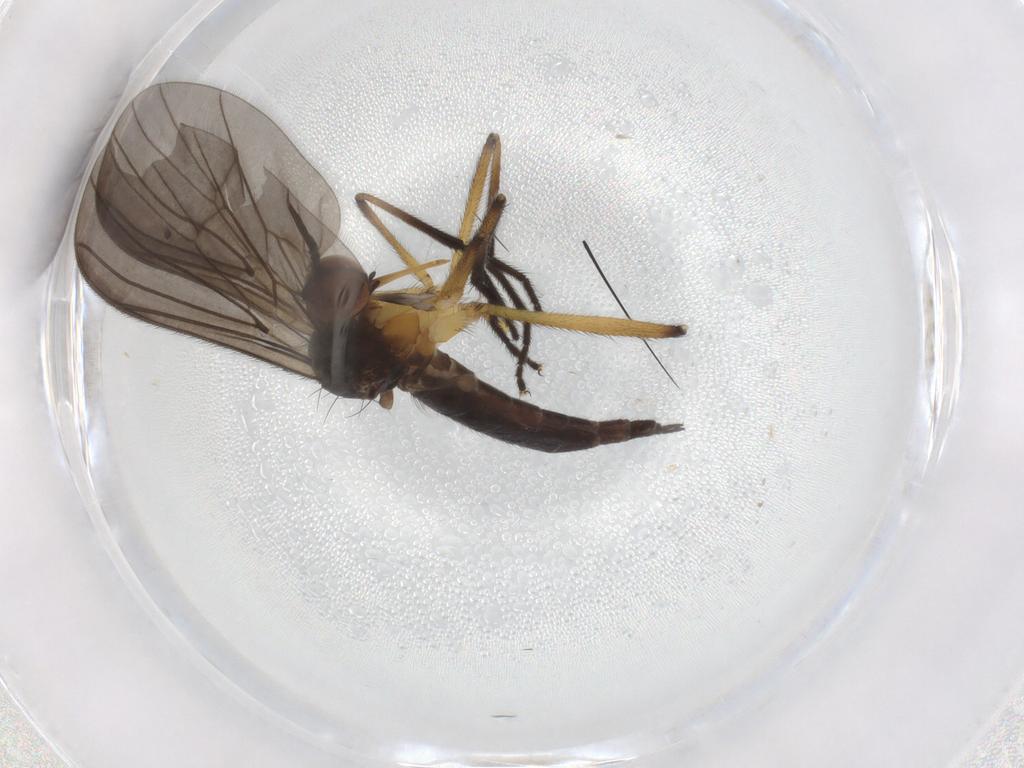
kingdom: Animalia
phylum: Arthropoda
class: Insecta
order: Diptera
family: Empididae
